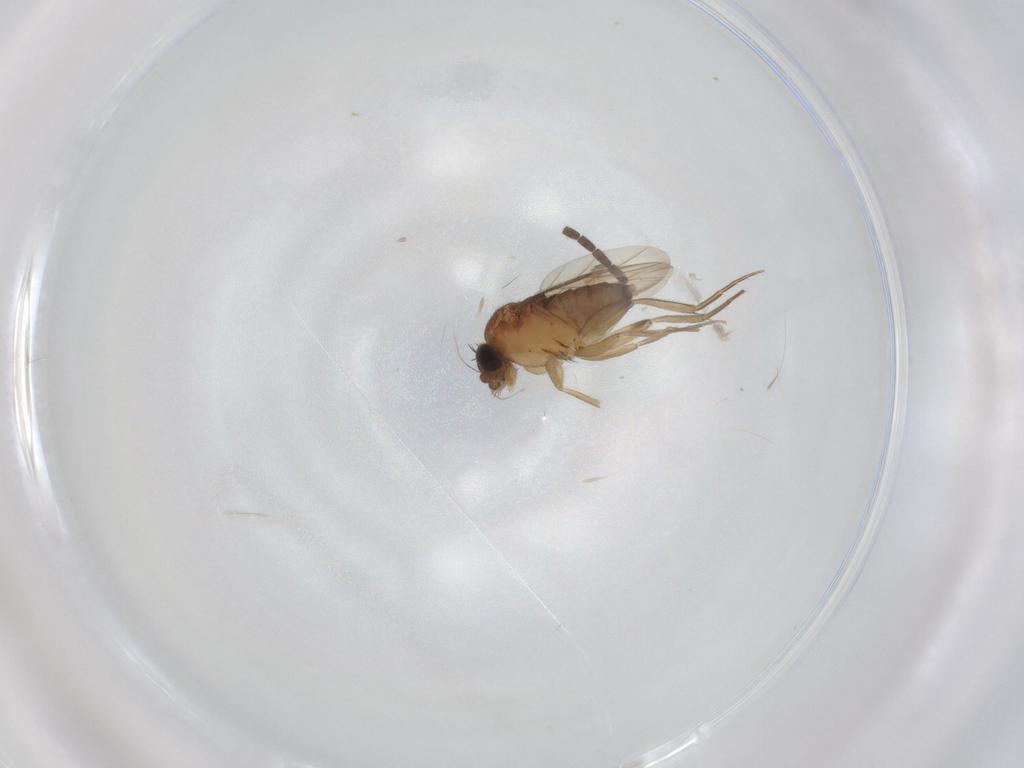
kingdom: Animalia
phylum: Arthropoda
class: Insecta
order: Diptera
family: Phoridae
